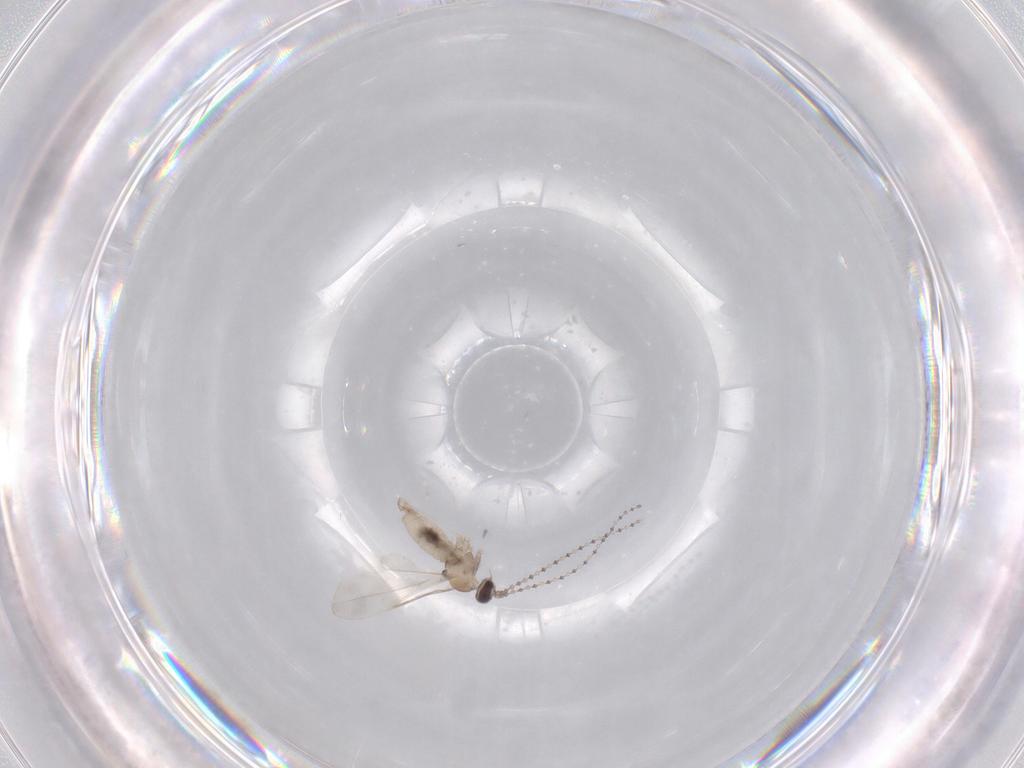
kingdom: Animalia
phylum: Arthropoda
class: Insecta
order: Diptera
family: Cecidomyiidae
